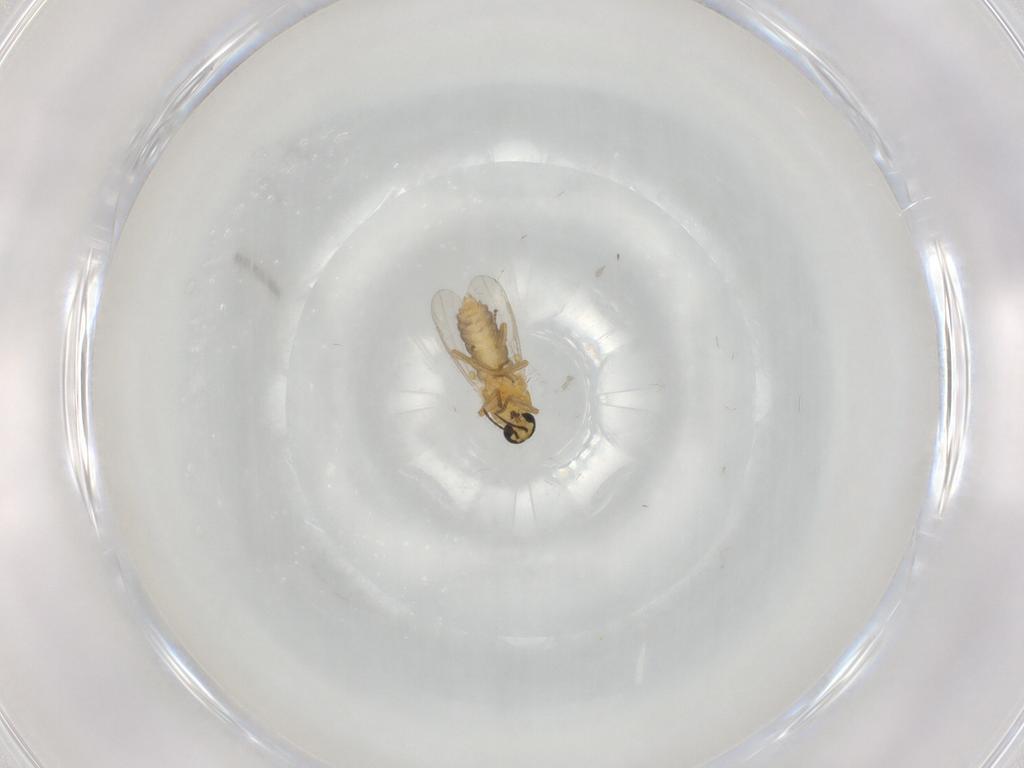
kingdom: Animalia
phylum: Arthropoda
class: Insecta
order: Diptera
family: Ceratopogonidae
